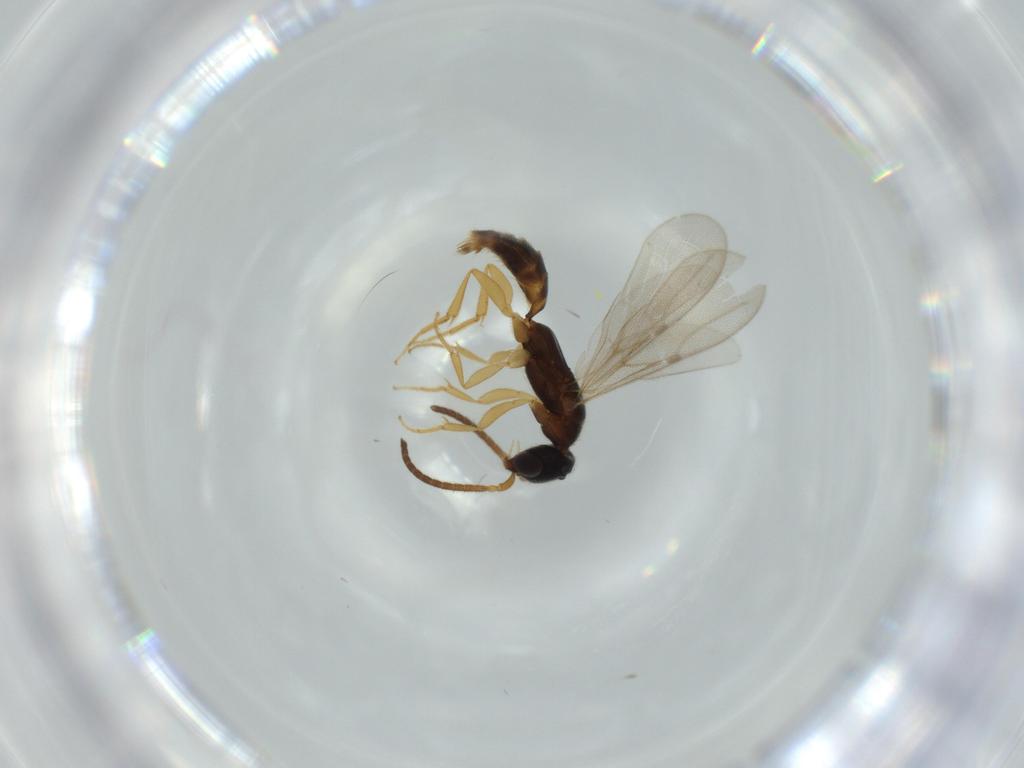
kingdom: Animalia
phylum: Arthropoda
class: Insecta
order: Hymenoptera
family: Bethylidae
